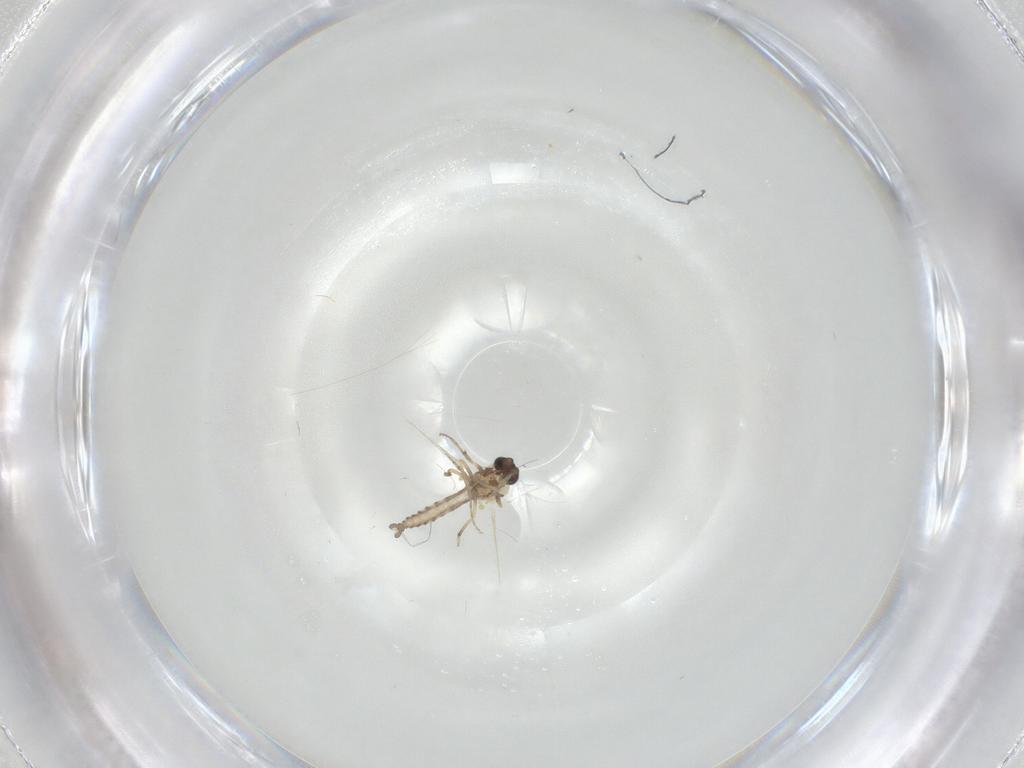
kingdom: Animalia
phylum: Arthropoda
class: Insecta
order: Diptera
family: Ceratopogonidae
